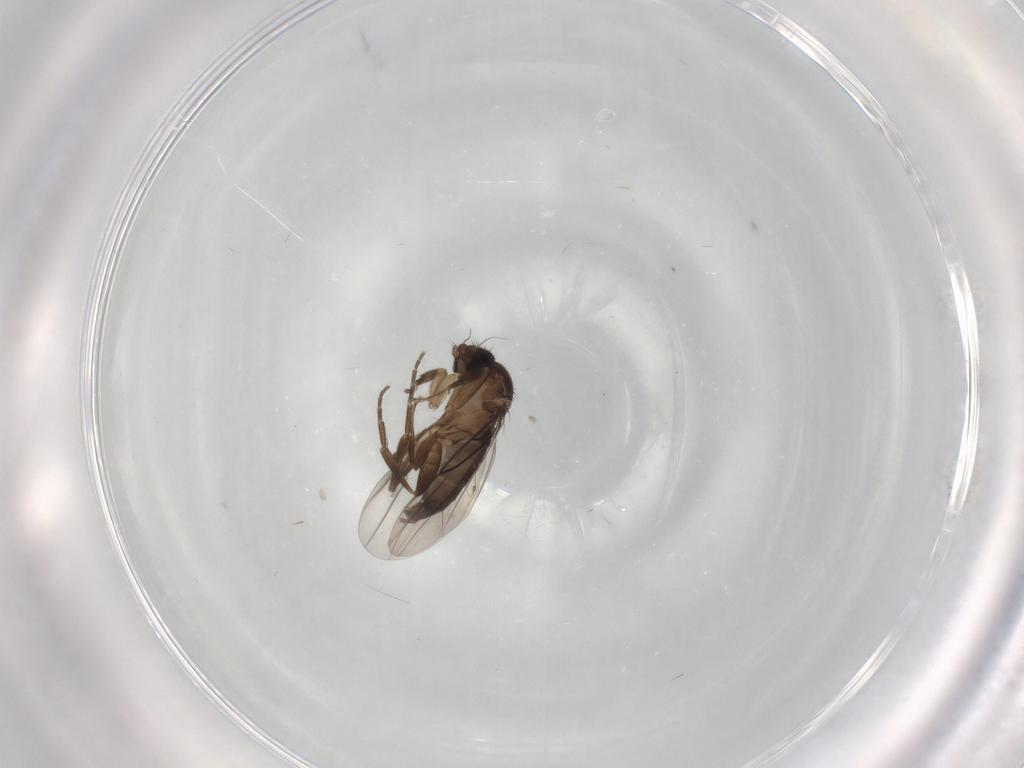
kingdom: Animalia
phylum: Arthropoda
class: Insecta
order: Diptera
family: Phoridae
